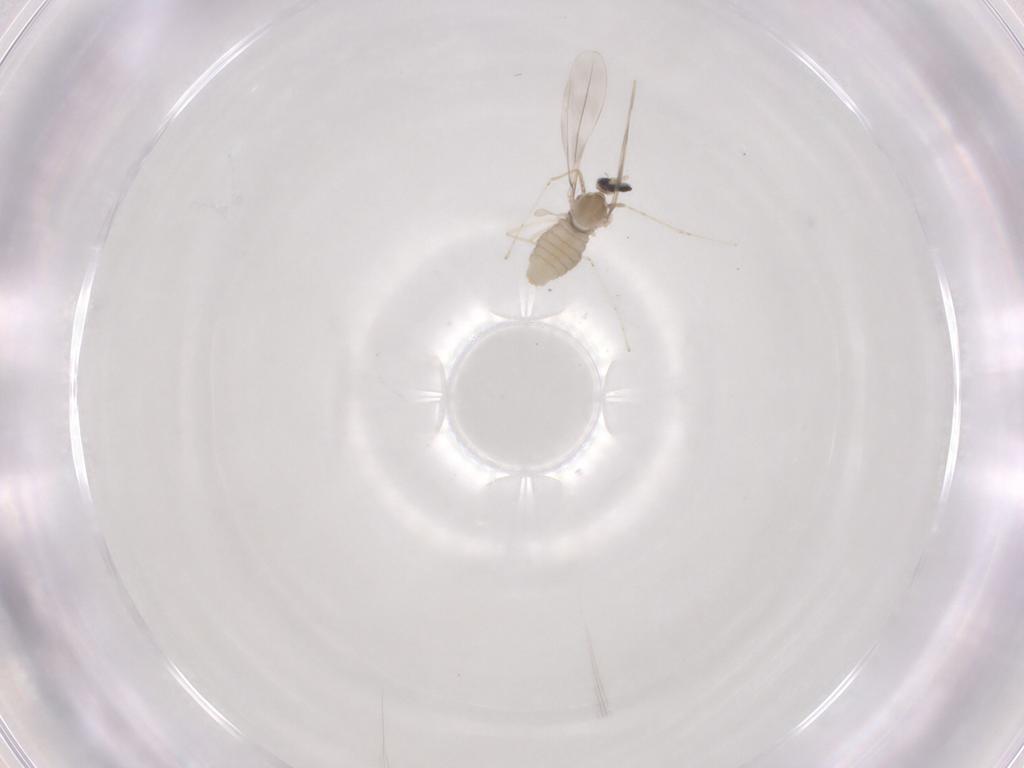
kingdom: Animalia
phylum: Arthropoda
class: Insecta
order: Diptera
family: Cecidomyiidae
